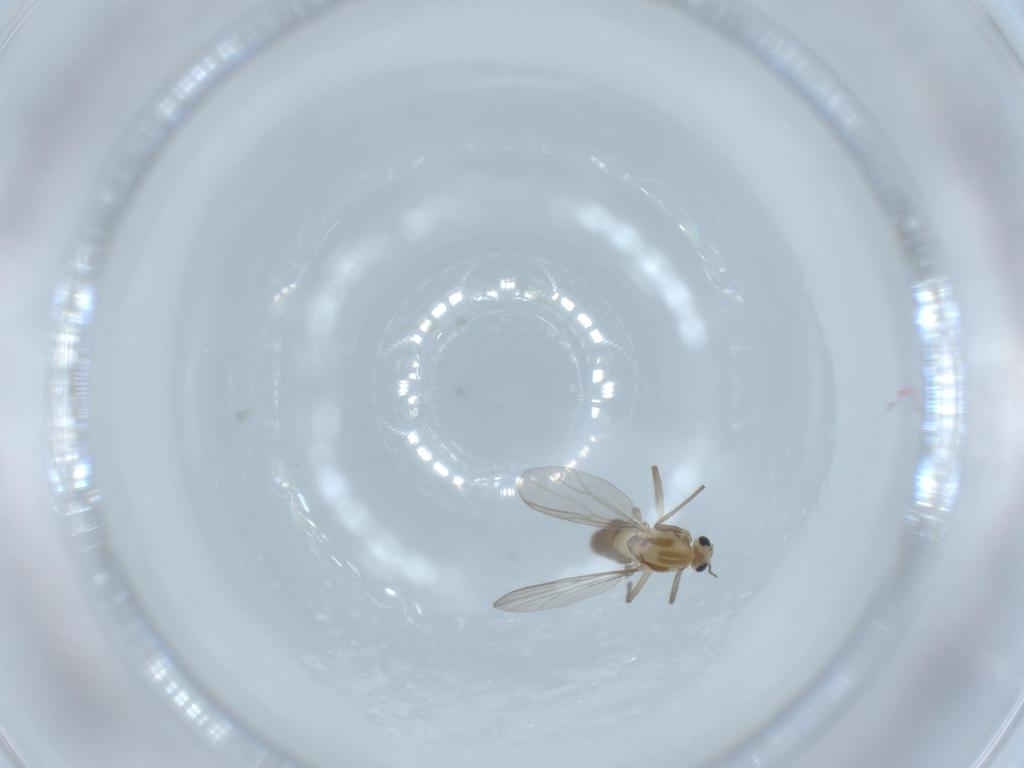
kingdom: Animalia
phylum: Arthropoda
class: Insecta
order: Diptera
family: Chironomidae
